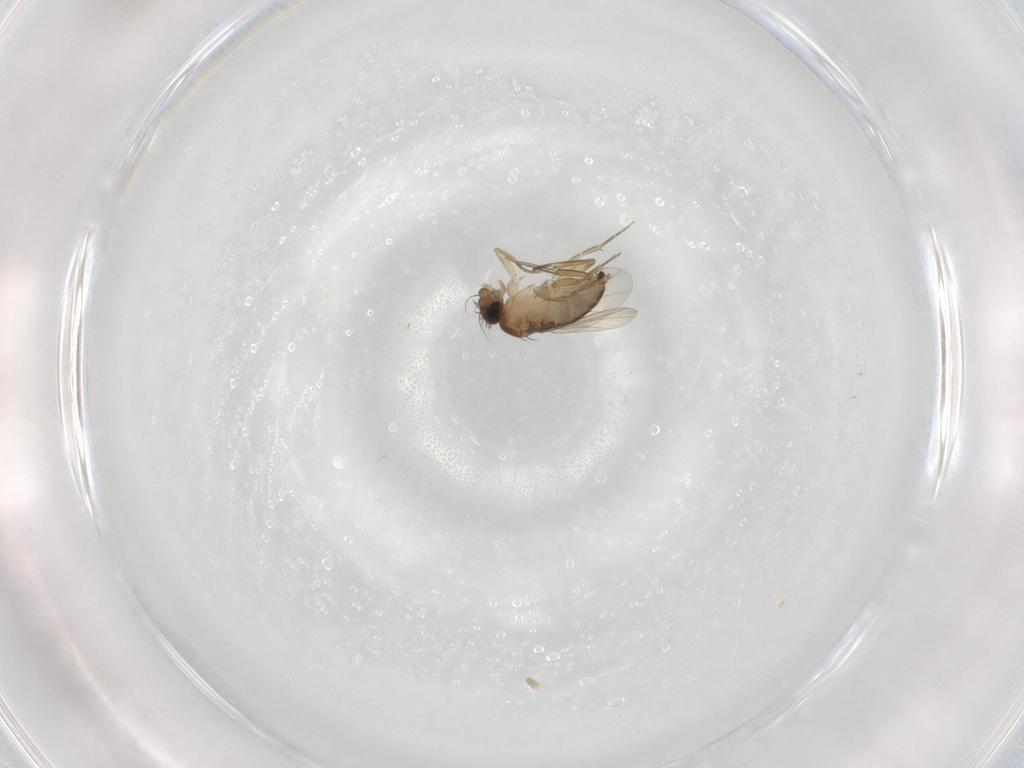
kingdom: Animalia
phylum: Arthropoda
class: Insecta
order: Diptera
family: Phoridae
